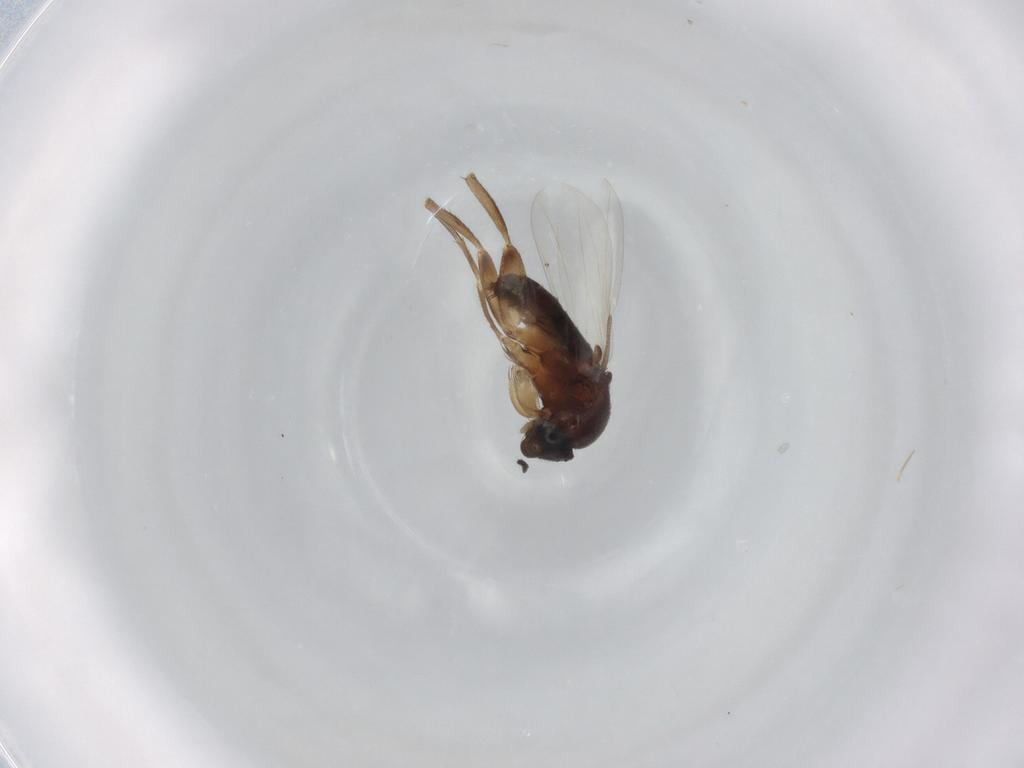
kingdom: Animalia
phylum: Arthropoda
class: Insecta
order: Diptera
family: Phoridae
